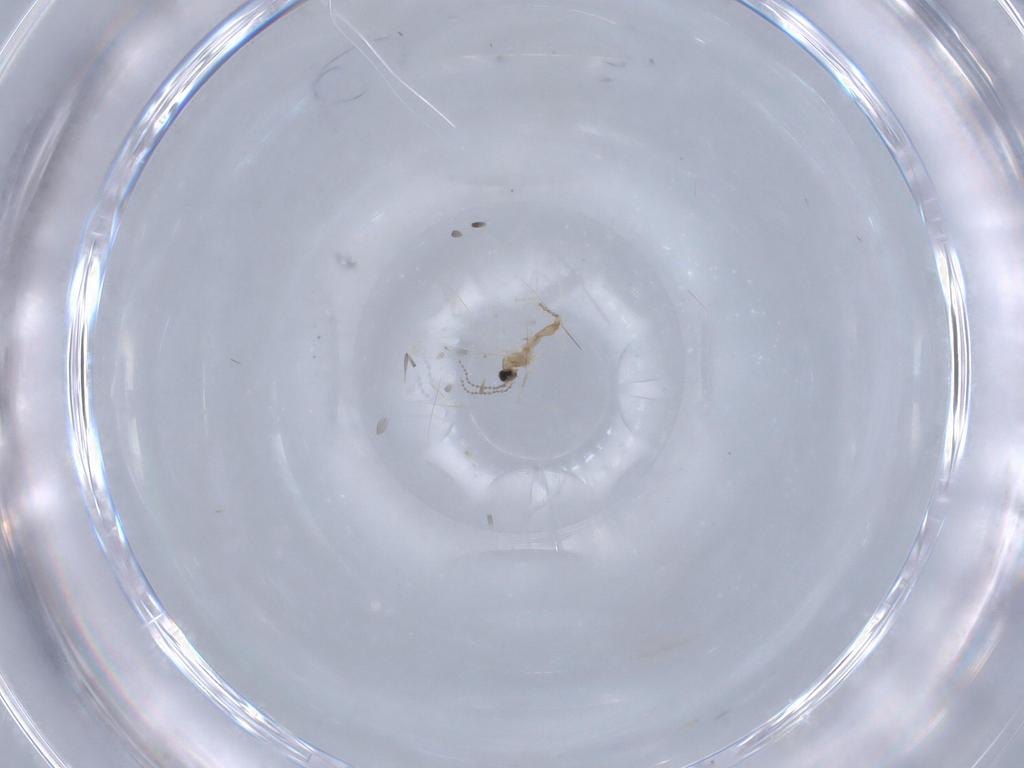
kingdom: Animalia
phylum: Arthropoda
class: Insecta
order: Diptera
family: Cecidomyiidae
